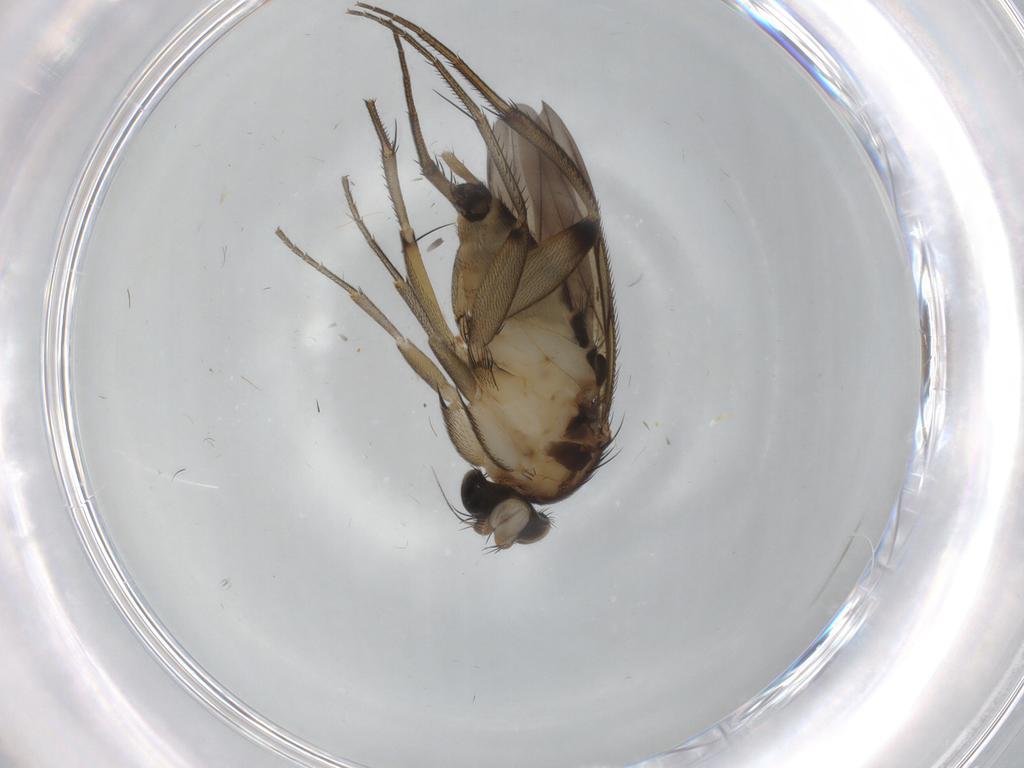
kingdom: Animalia
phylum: Arthropoda
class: Insecta
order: Diptera
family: Phoridae
